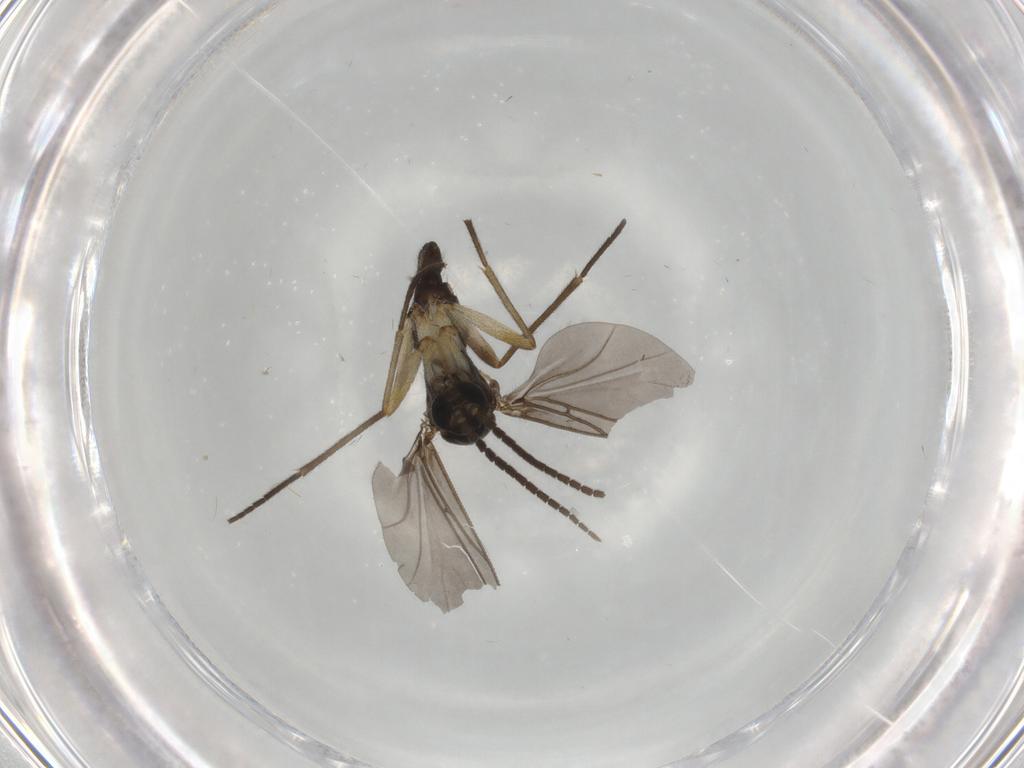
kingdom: Animalia
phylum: Arthropoda
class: Insecta
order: Diptera
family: Sciaridae
